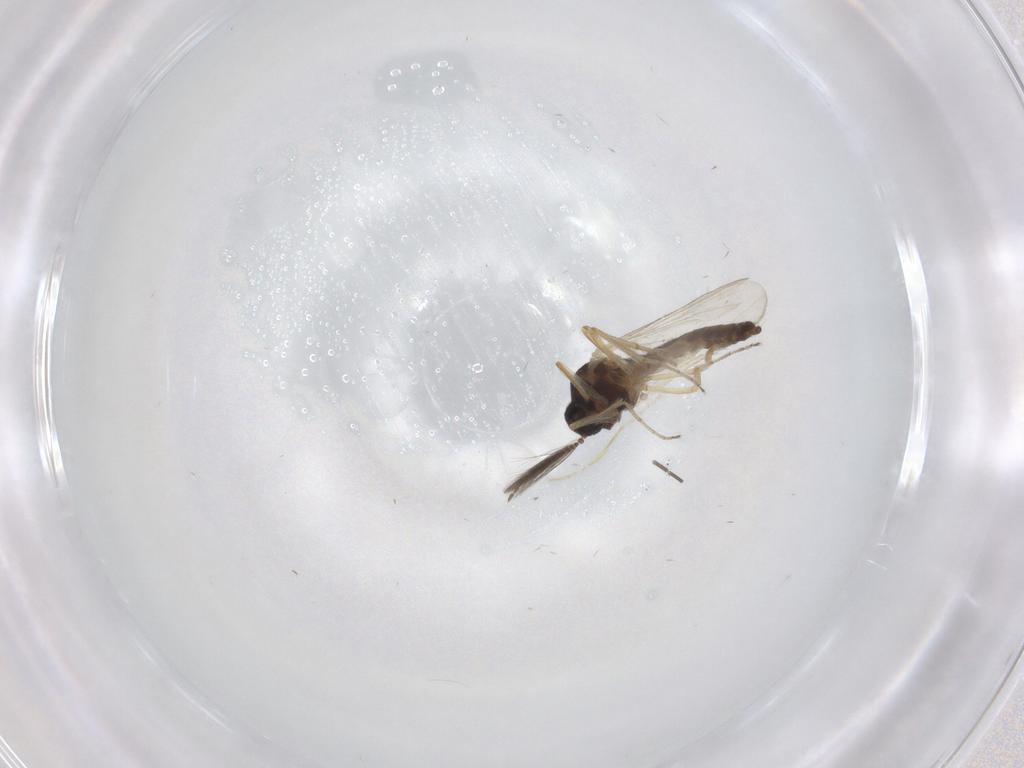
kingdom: Animalia
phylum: Arthropoda
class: Insecta
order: Diptera
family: Ceratopogonidae
